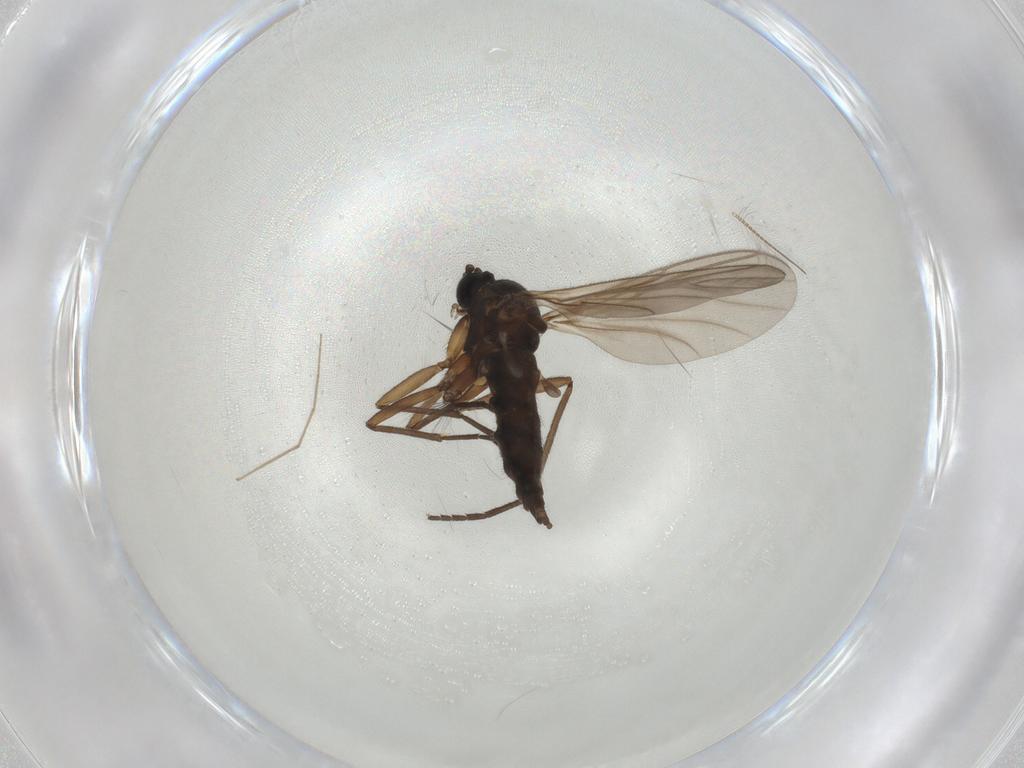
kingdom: Animalia
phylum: Arthropoda
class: Insecta
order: Diptera
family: Sciaridae
